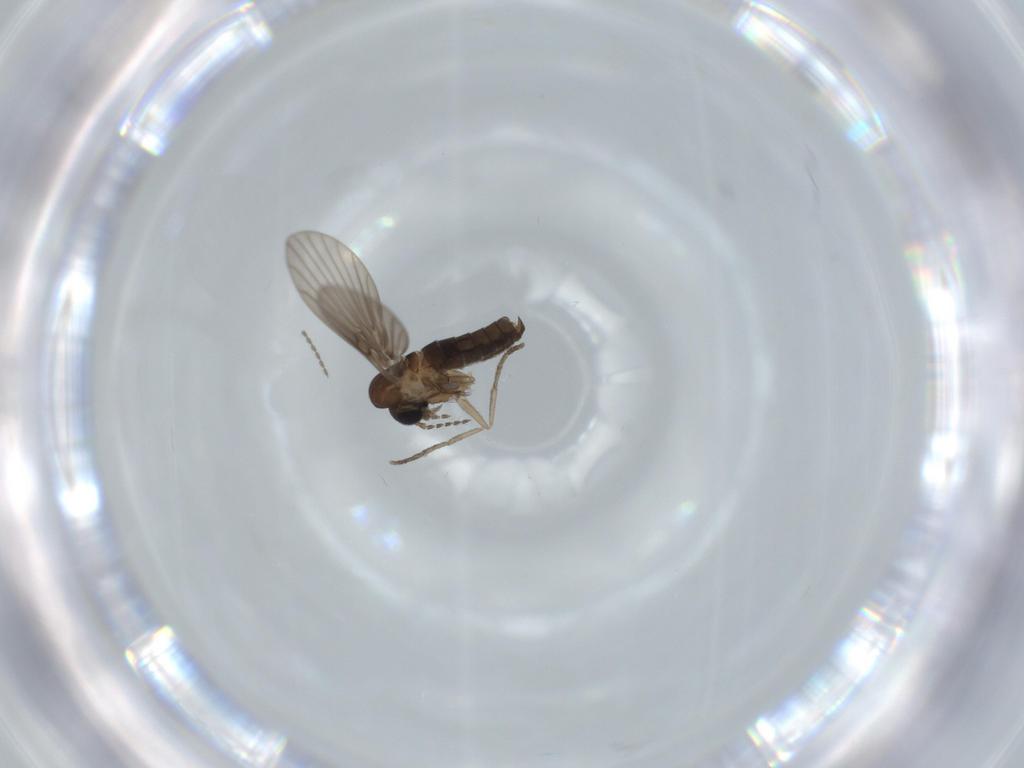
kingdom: Animalia
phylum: Arthropoda
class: Insecta
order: Diptera
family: Psychodidae
